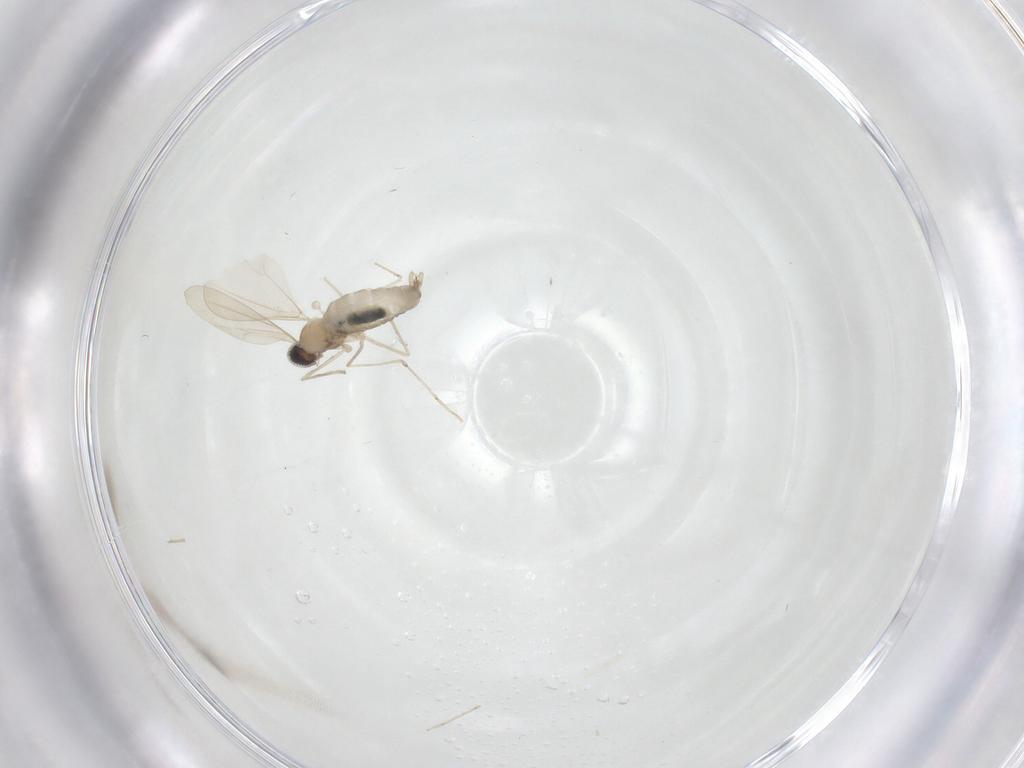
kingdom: Animalia
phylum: Arthropoda
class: Insecta
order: Diptera
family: Cecidomyiidae
